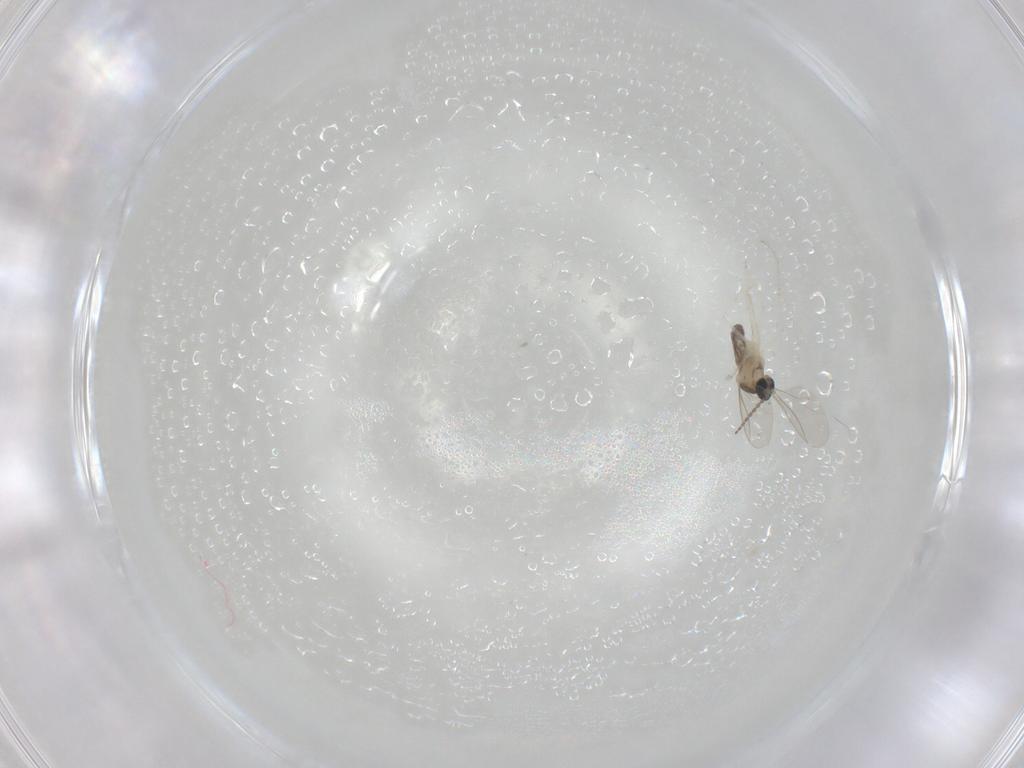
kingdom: Animalia
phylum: Arthropoda
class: Insecta
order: Diptera
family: Cecidomyiidae
